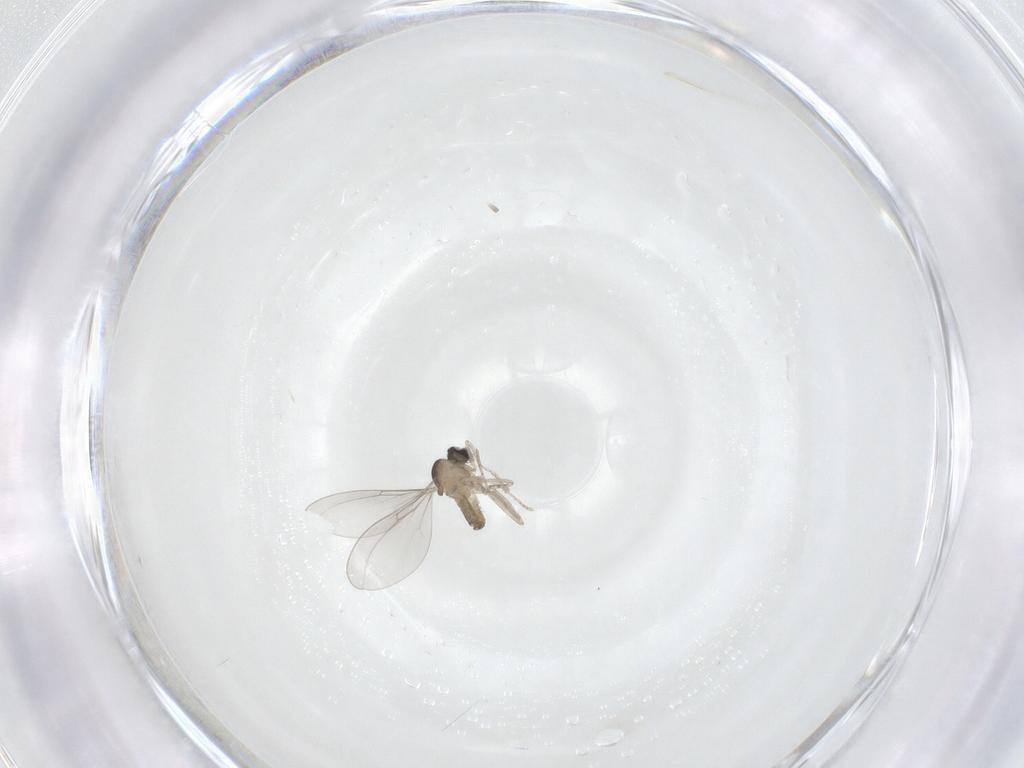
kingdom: Animalia
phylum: Arthropoda
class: Insecta
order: Diptera
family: Cecidomyiidae
